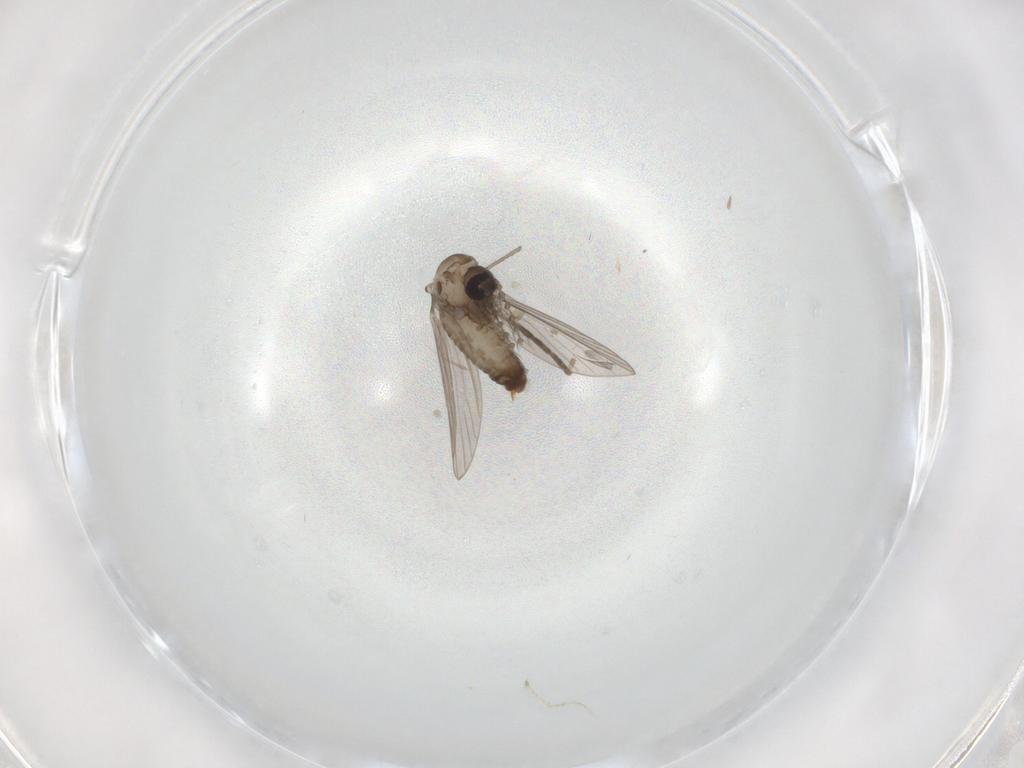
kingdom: Animalia
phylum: Arthropoda
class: Insecta
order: Diptera
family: Psychodidae
